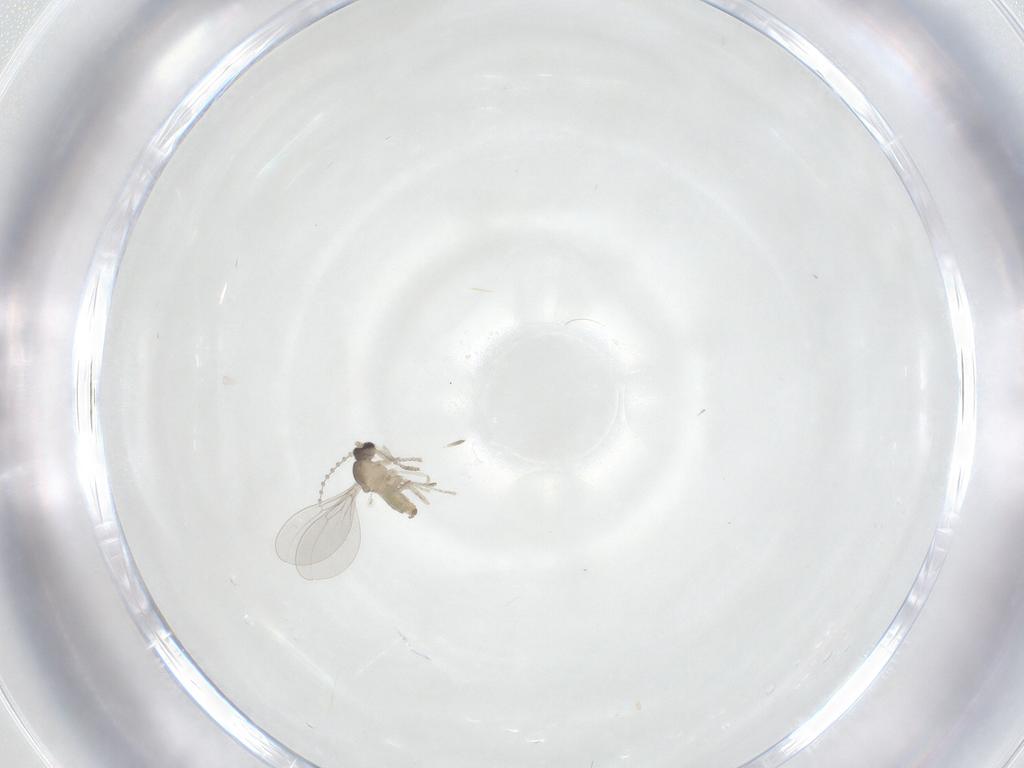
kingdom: Animalia
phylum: Arthropoda
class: Insecta
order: Diptera
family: Cecidomyiidae
